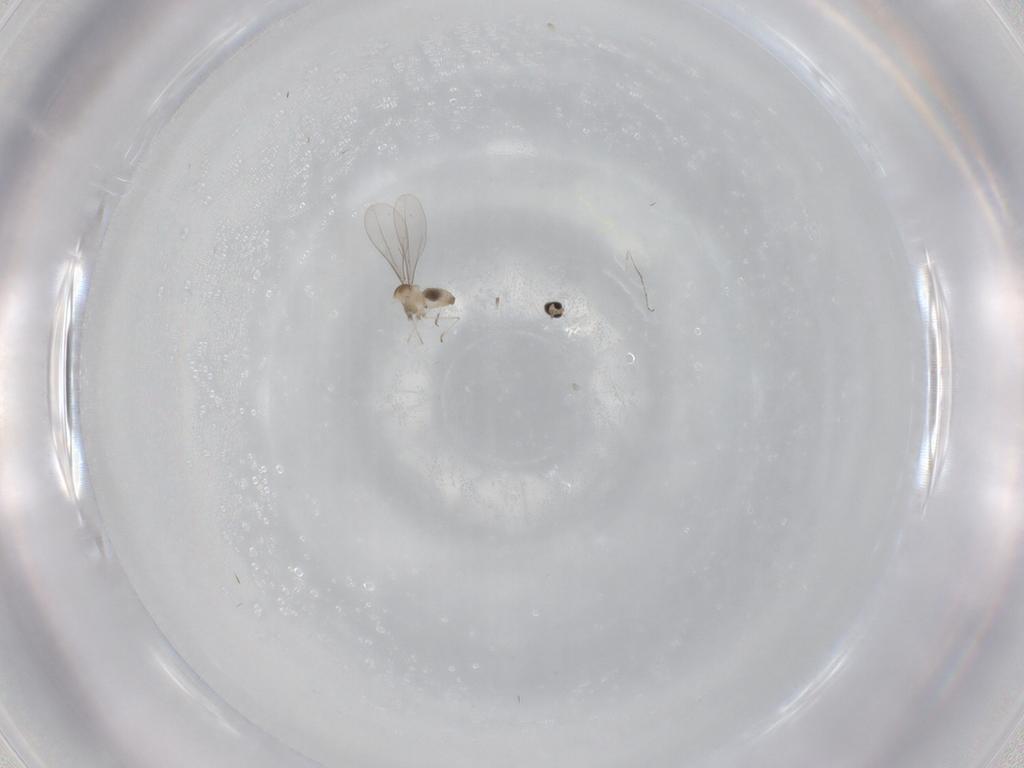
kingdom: Animalia
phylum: Arthropoda
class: Insecta
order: Diptera
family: Cecidomyiidae
